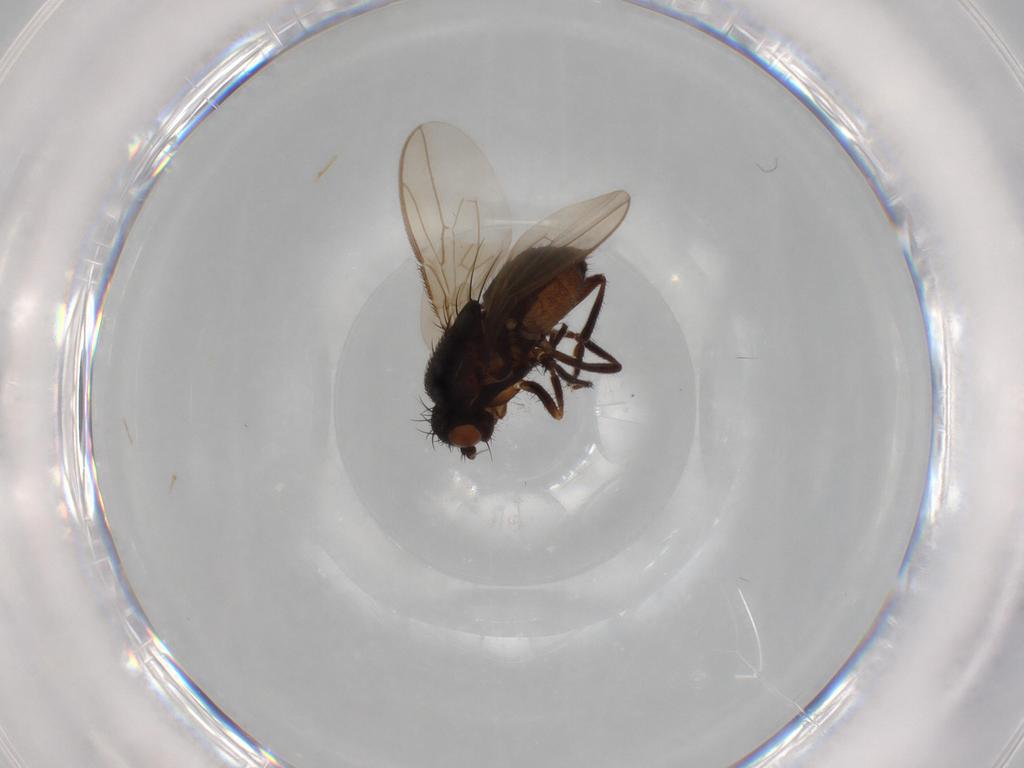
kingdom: Animalia
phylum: Arthropoda
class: Insecta
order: Diptera
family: Sphaeroceridae
